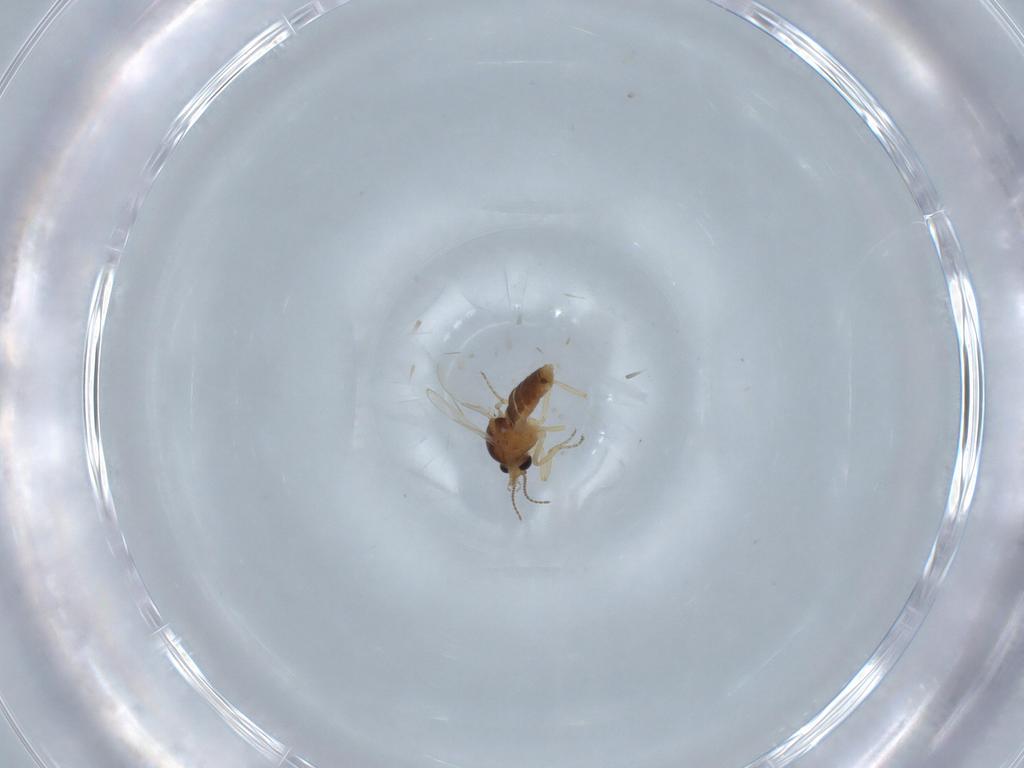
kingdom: Animalia
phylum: Arthropoda
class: Insecta
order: Diptera
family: Ceratopogonidae
